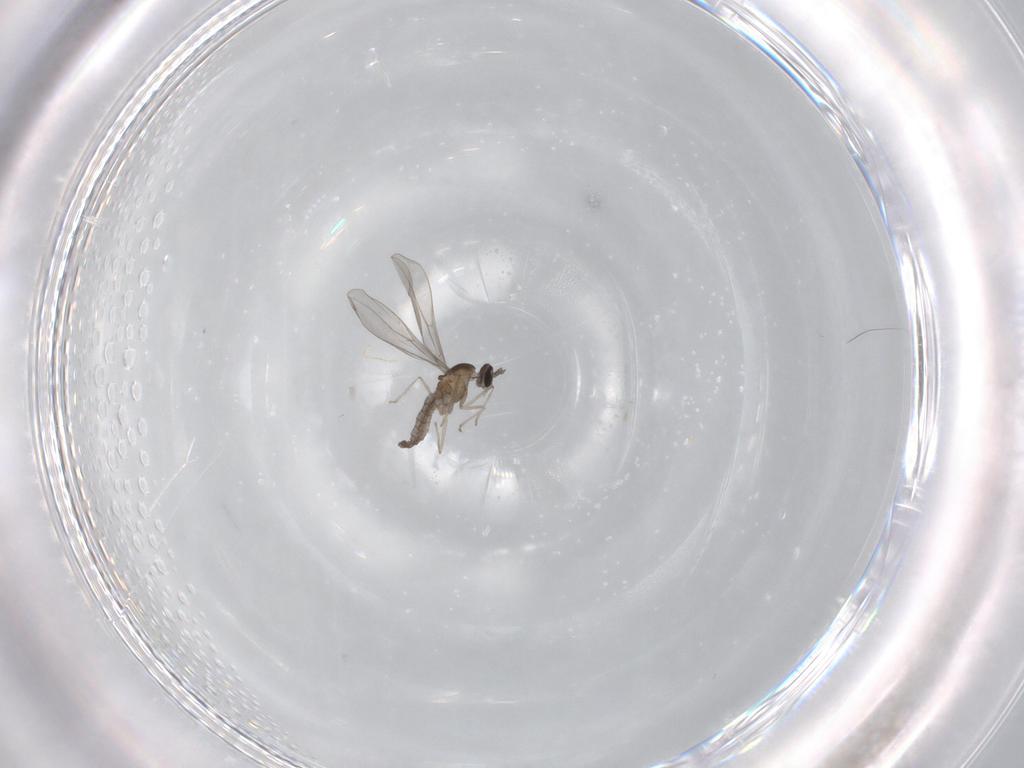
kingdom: Animalia
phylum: Arthropoda
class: Insecta
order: Diptera
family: Cecidomyiidae
